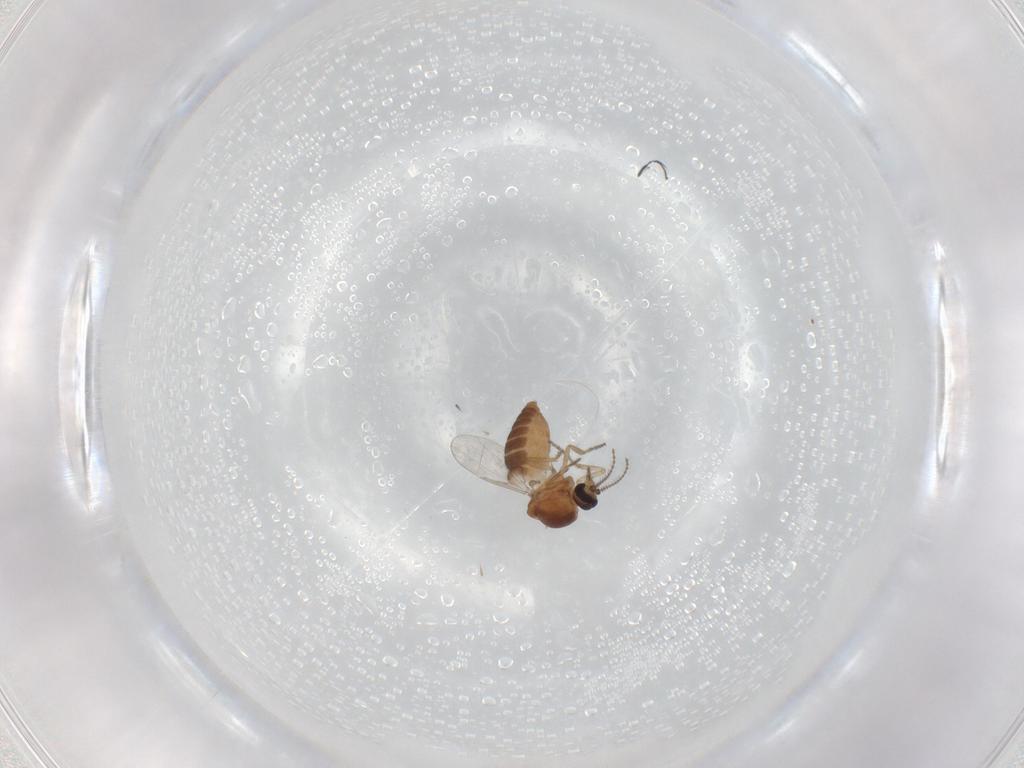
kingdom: Animalia
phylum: Arthropoda
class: Insecta
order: Diptera
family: Ceratopogonidae
